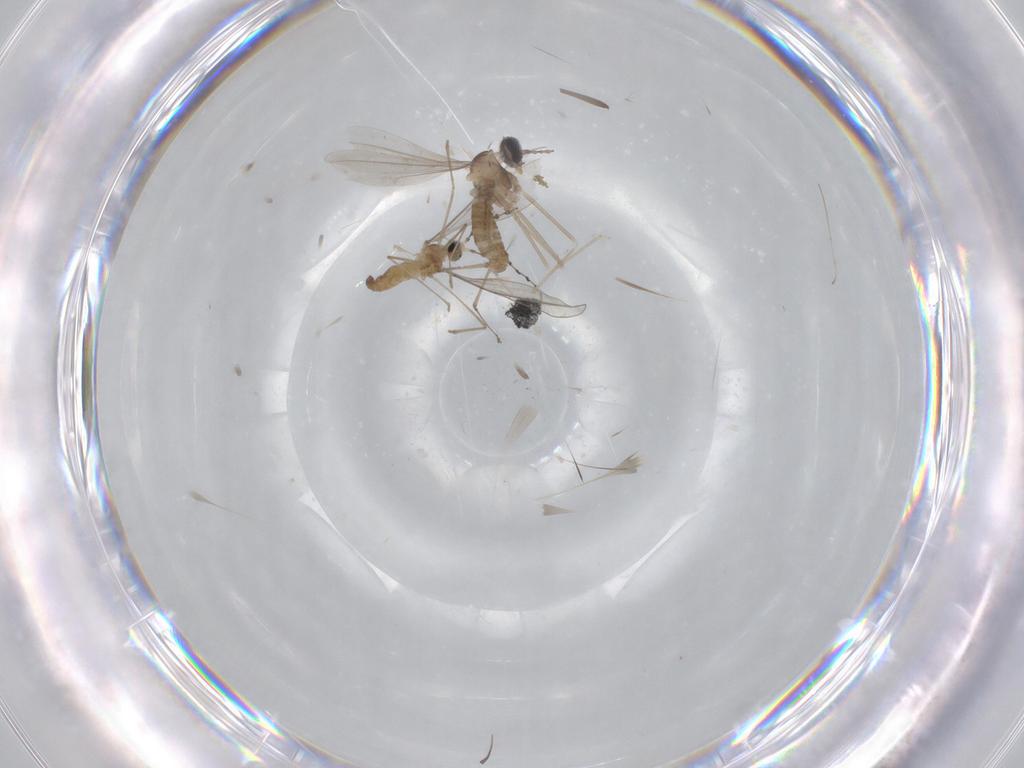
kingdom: Animalia
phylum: Arthropoda
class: Insecta
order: Diptera
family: Cecidomyiidae
